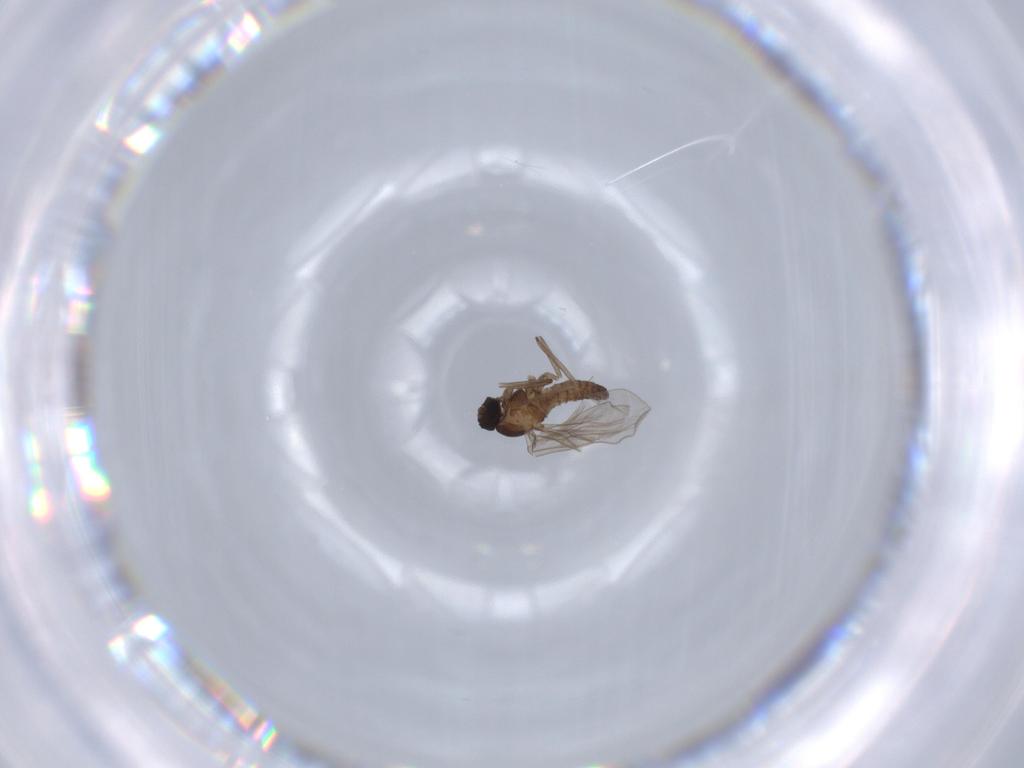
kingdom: Animalia
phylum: Arthropoda
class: Insecta
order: Diptera
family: Cecidomyiidae
